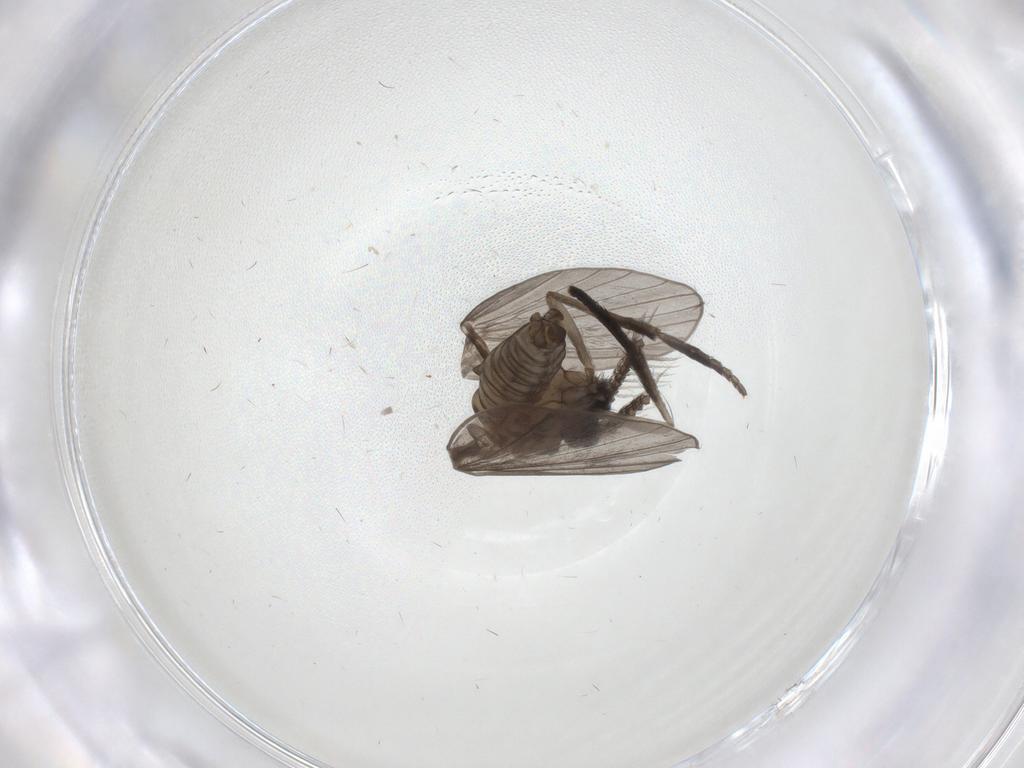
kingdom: Animalia
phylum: Arthropoda
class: Insecta
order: Diptera
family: Psychodidae
